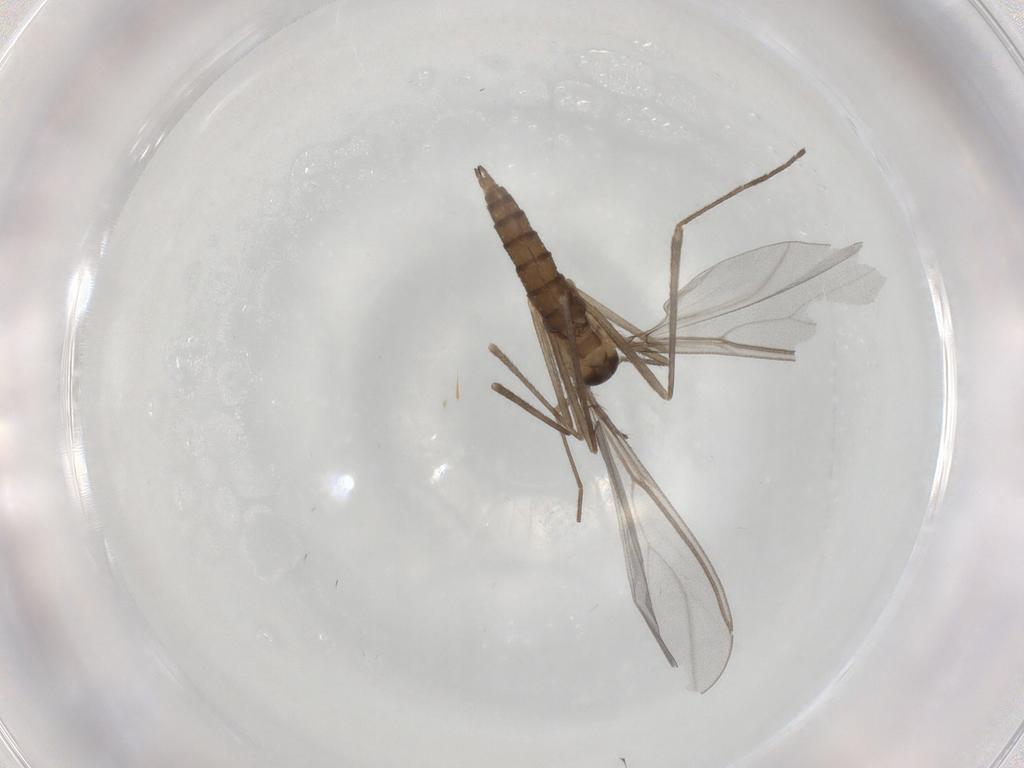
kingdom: Animalia
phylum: Arthropoda
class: Insecta
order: Diptera
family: Cecidomyiidae
